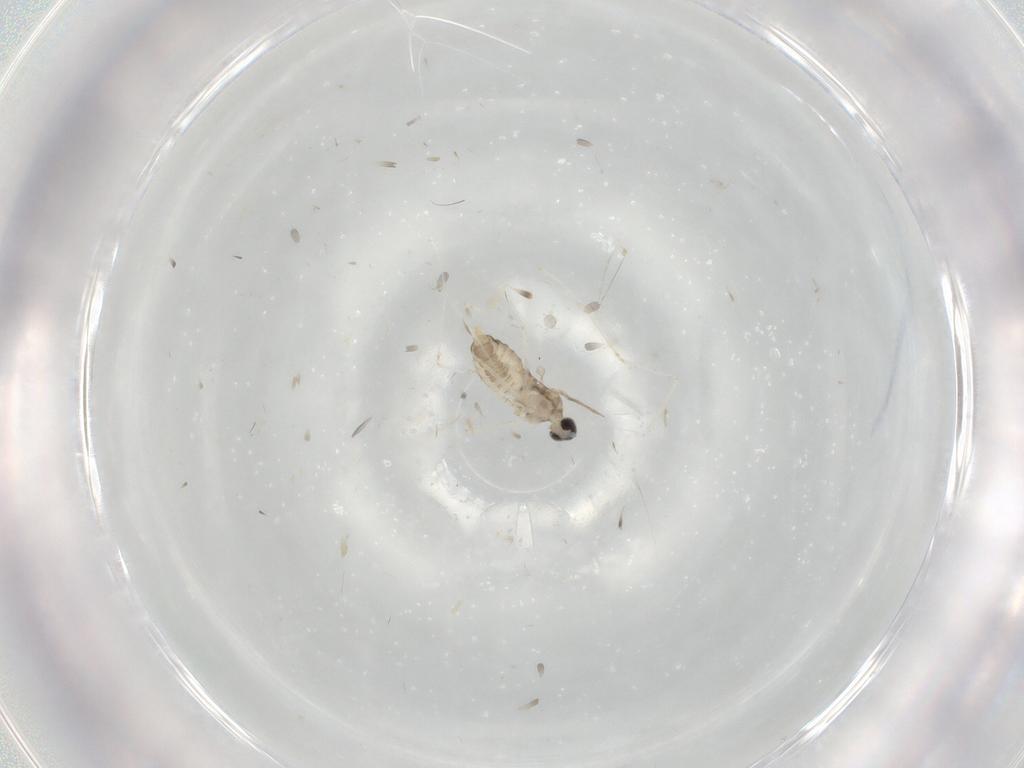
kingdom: Animalia
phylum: Arthropoda
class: Insecta
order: Diptera
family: Cecidomyiidae
